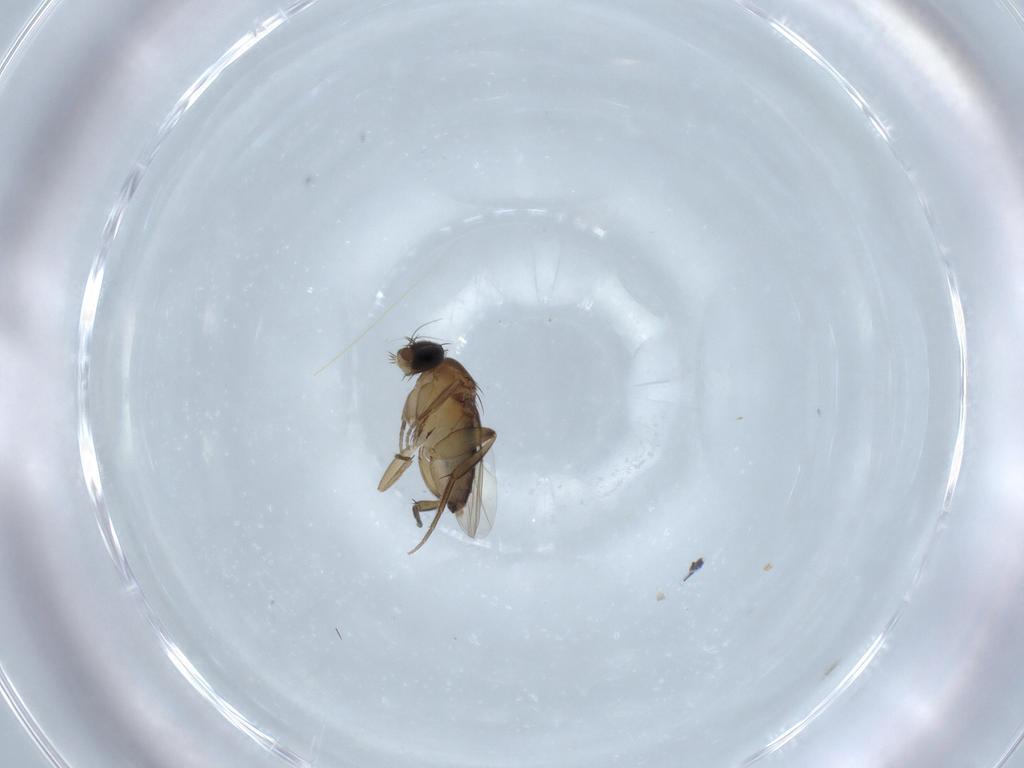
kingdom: Animalia
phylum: Arthropoda
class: Insecta
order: Diptera
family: Phoridae
